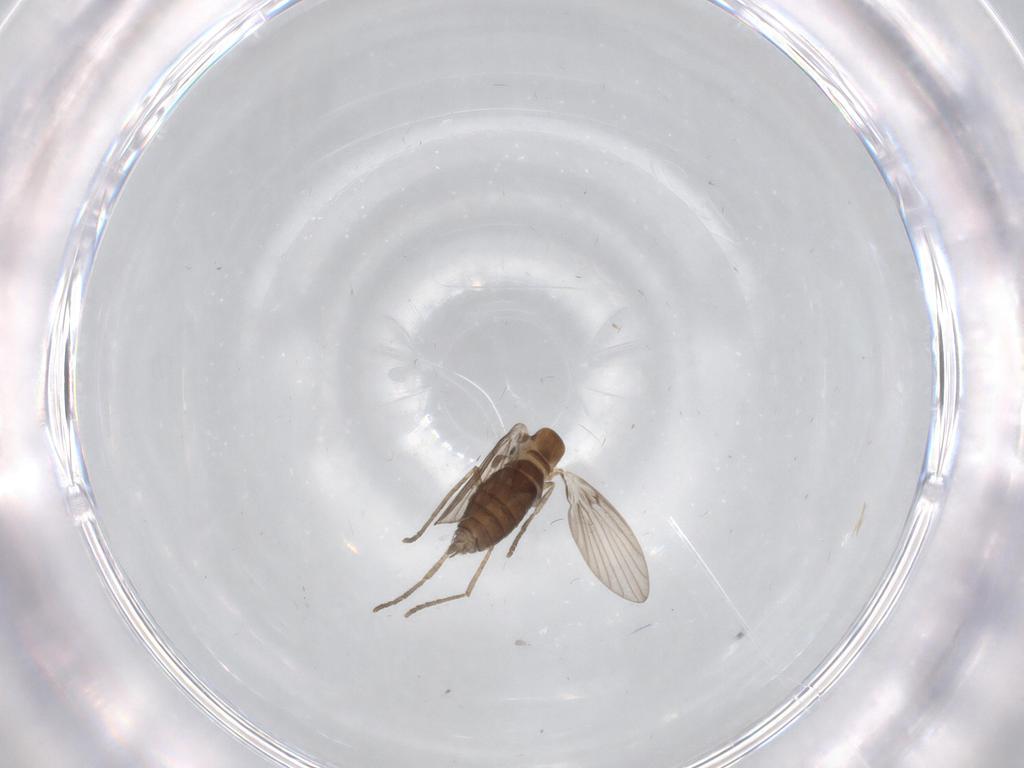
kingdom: Animalia
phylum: Arthropoda
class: Insecta
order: Diptera
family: Psychodidae
